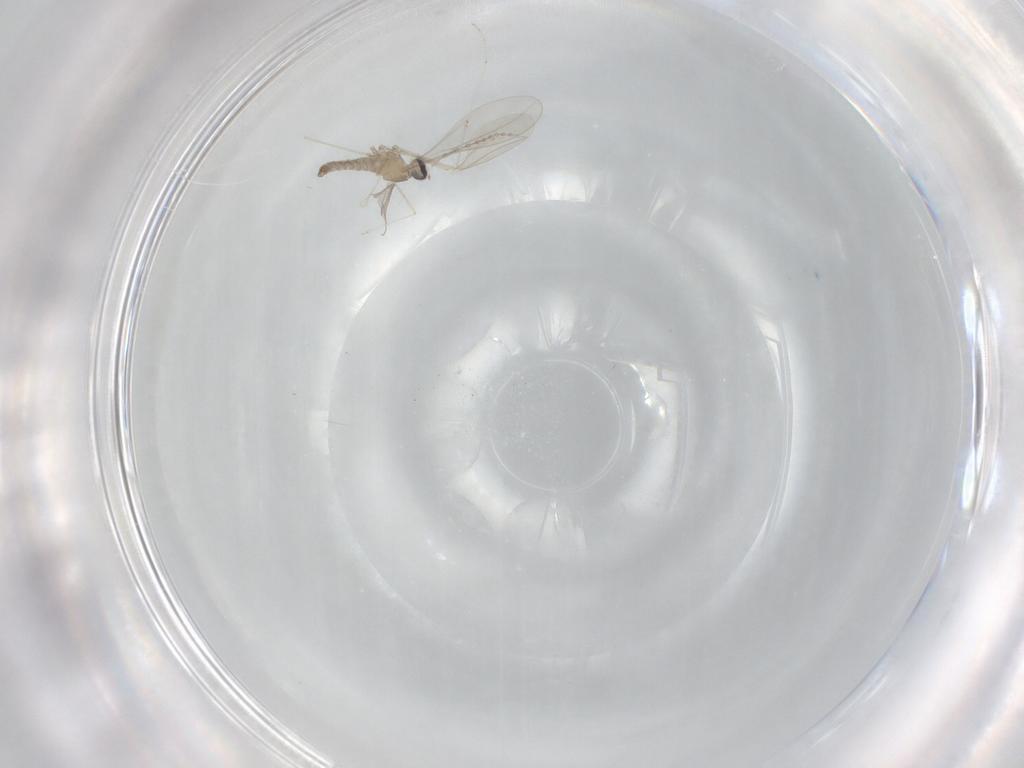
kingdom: Animalia
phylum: Arthropoda
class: Insecta
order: Diptera
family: Cecidomyiidae
